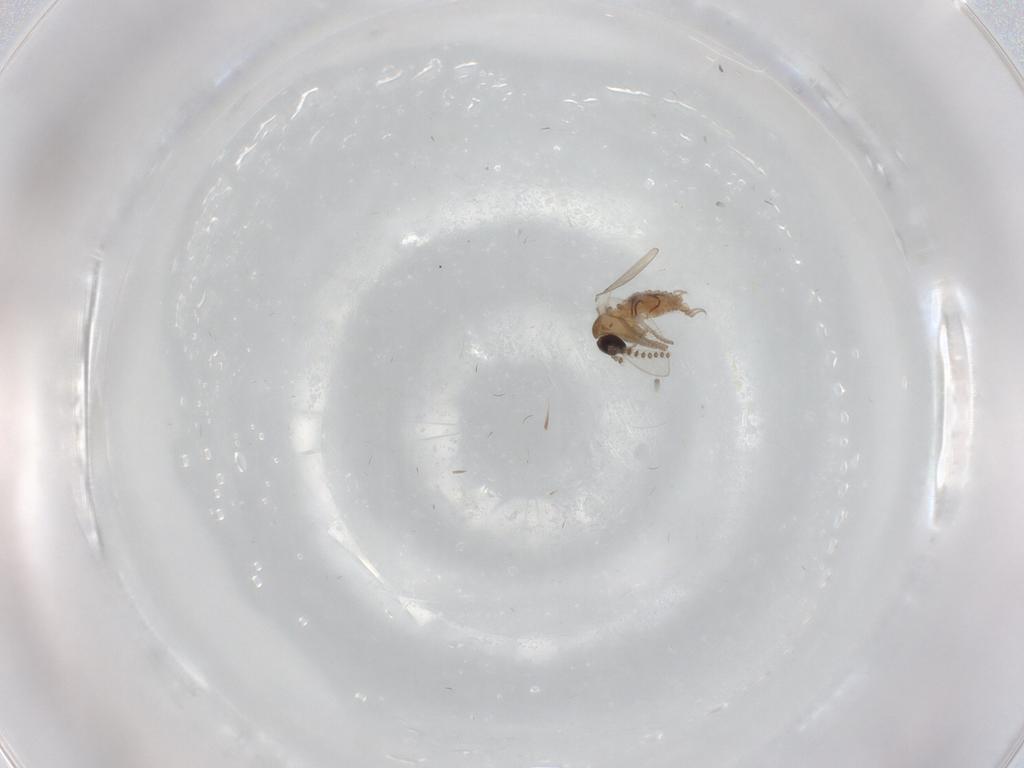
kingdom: Animalia
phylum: Arthropoda
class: Insecta
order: Diptera
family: Psychodidae
